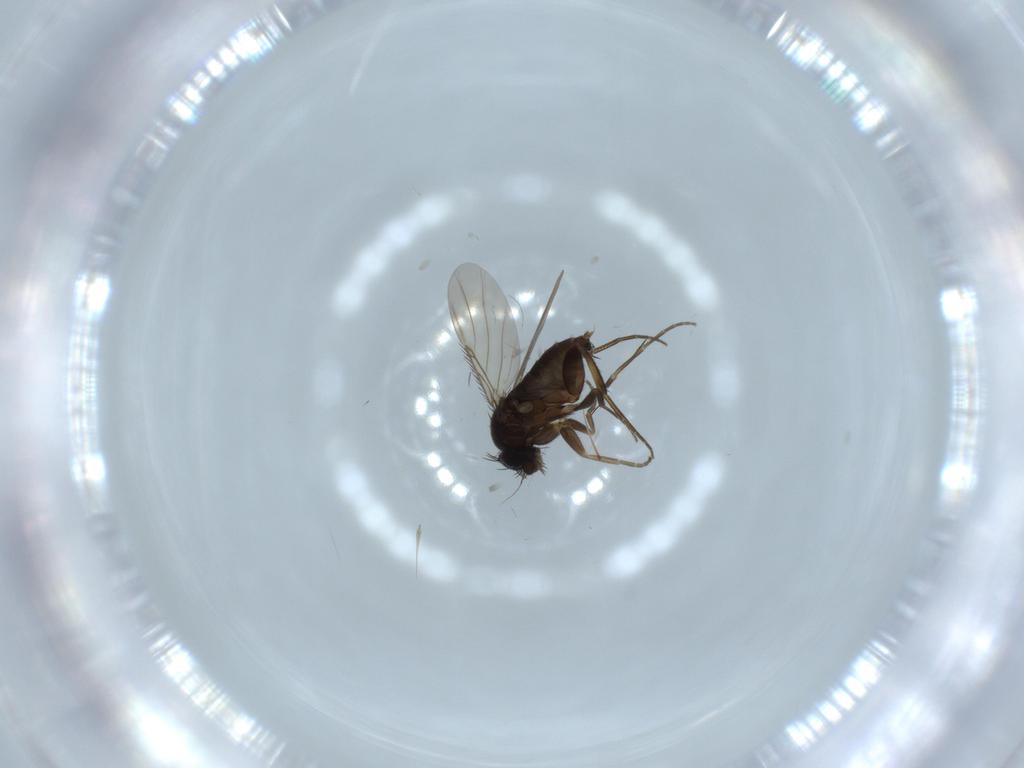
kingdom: Animalia
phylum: Arthropoda
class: Insecta
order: Diptera
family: Phoridae
